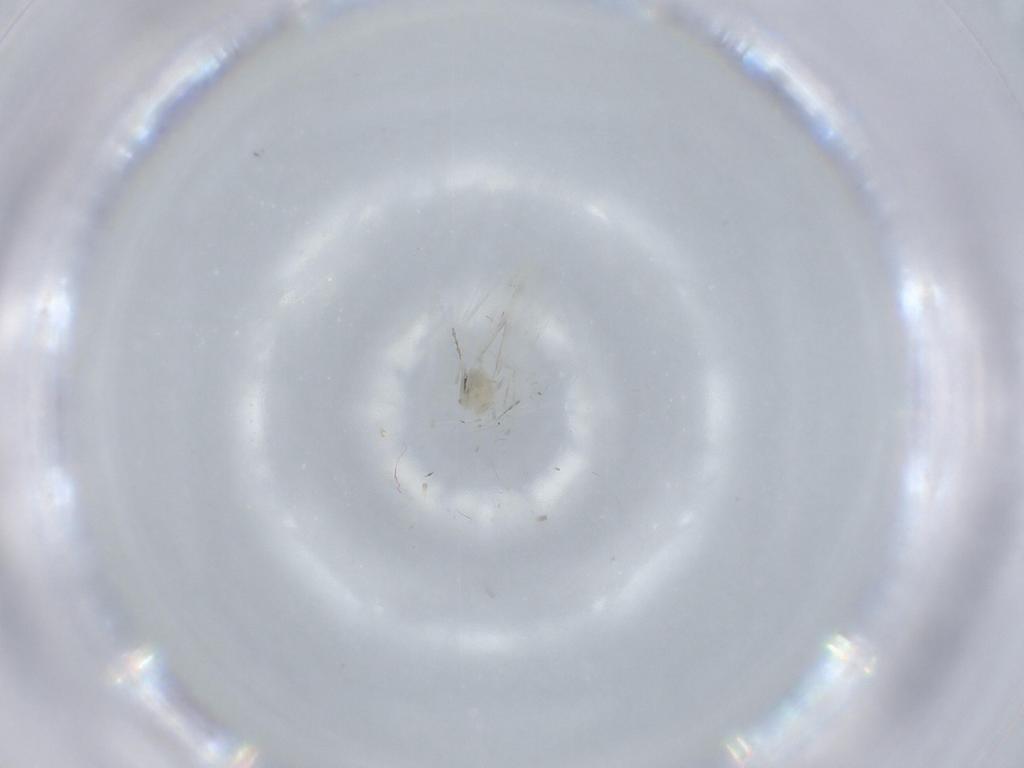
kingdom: Animalia
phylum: Arthropoda
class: Insecta
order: Diptera
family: Cecidomyiidae
